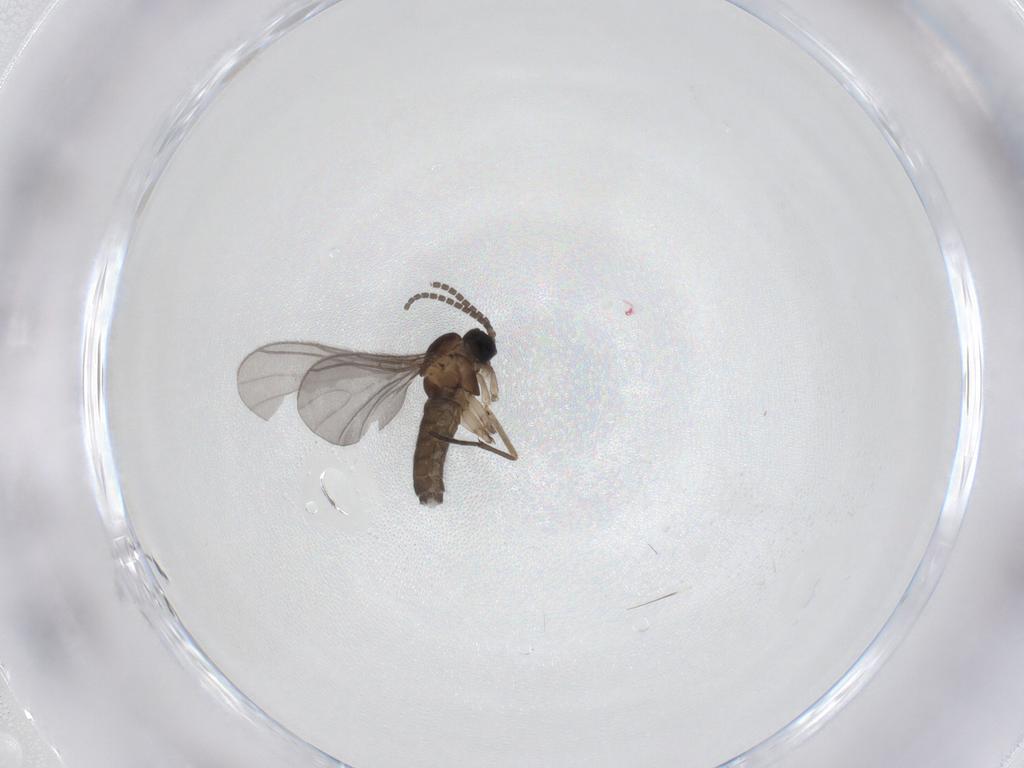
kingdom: Animalia
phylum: Arthropoda
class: Insecta
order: Diptera
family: Sciaridae
